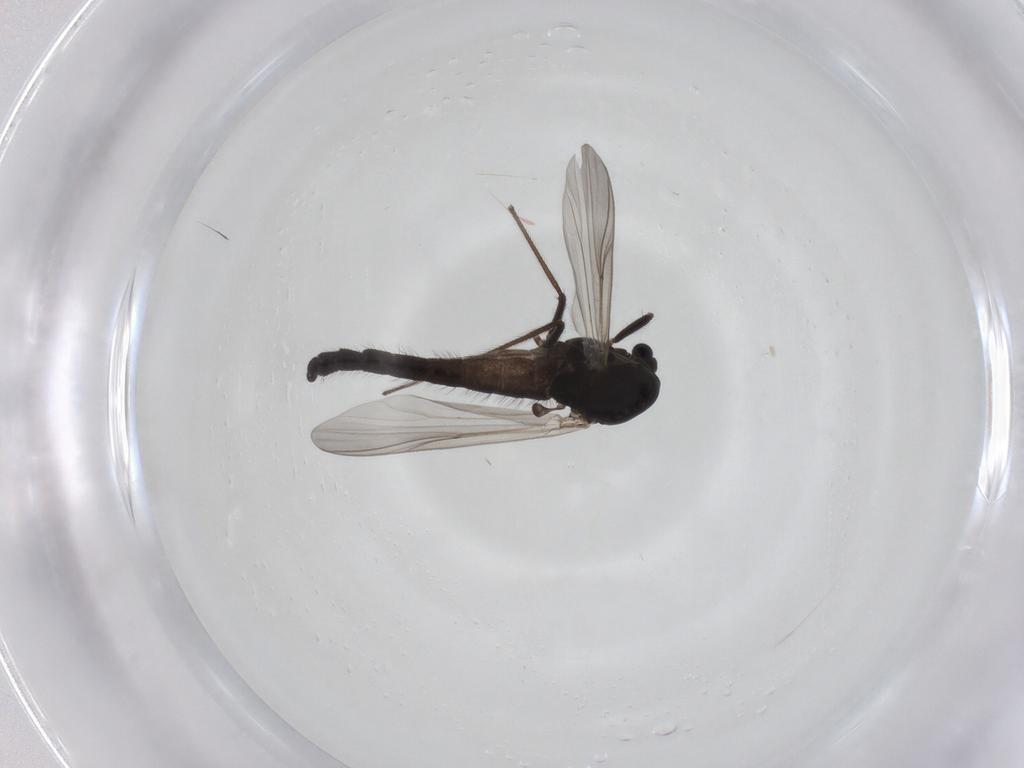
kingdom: Animalia
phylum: Arthropoda
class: Insecta
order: Diptera
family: Chironomidae
